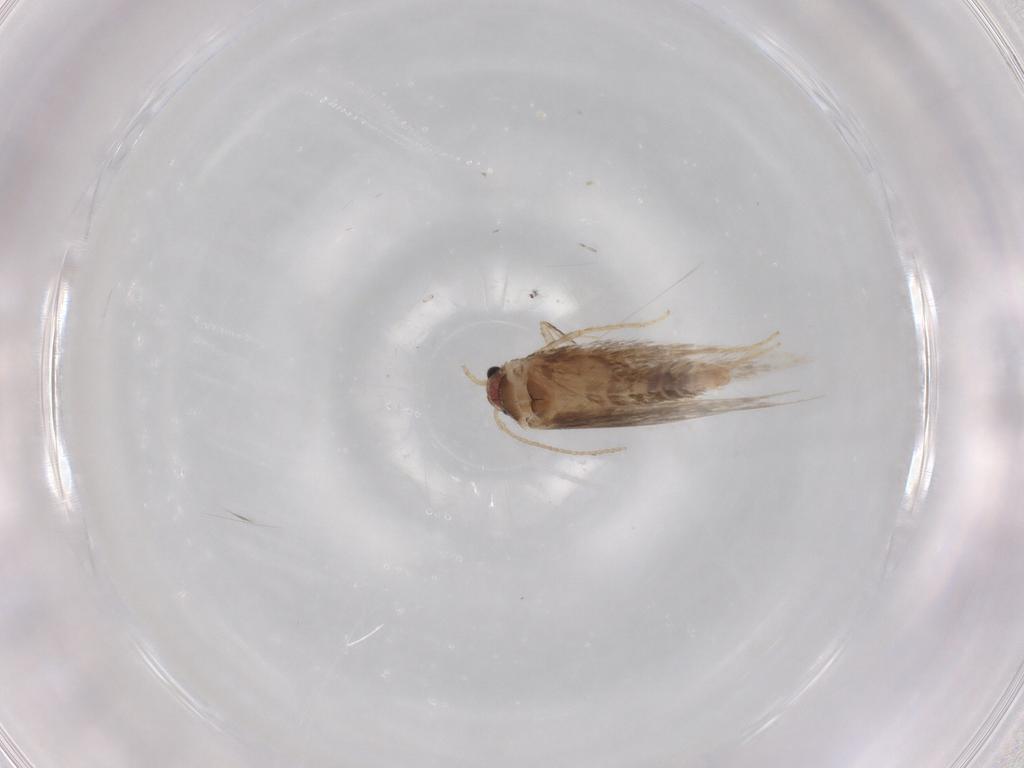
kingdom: Animalia
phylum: Arthropoda
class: Insecta
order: Lepidoptera
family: Nepticulidae
